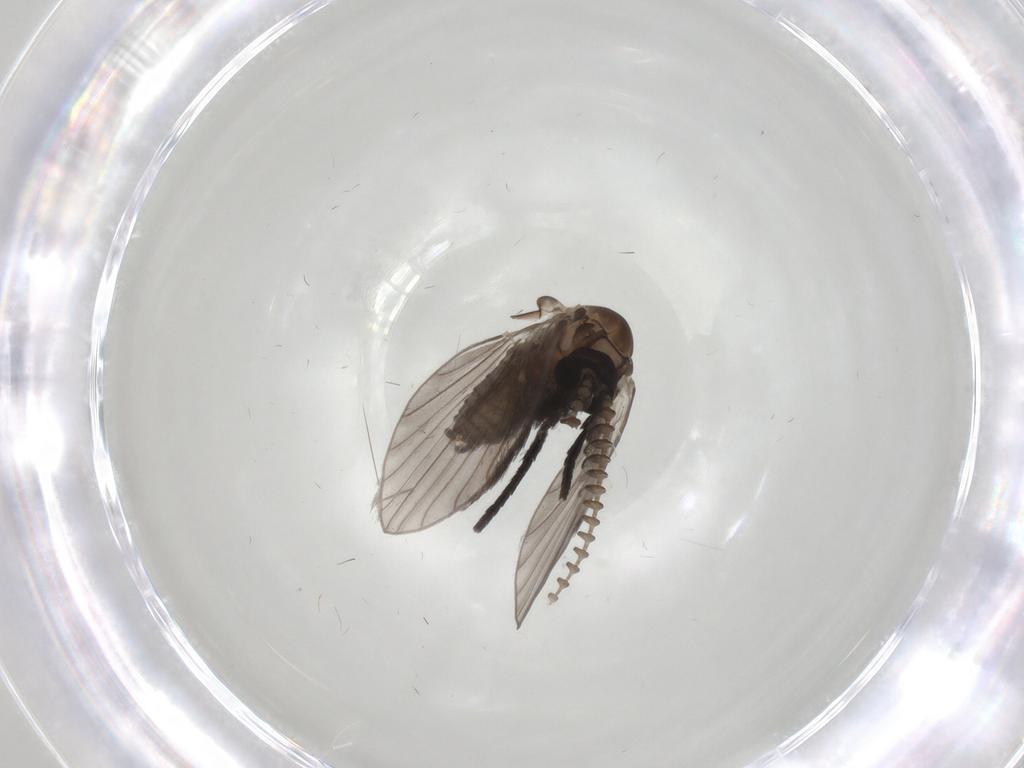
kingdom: Animalia
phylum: Arthropoda
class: Insecta
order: Diptera
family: Psychodidae
